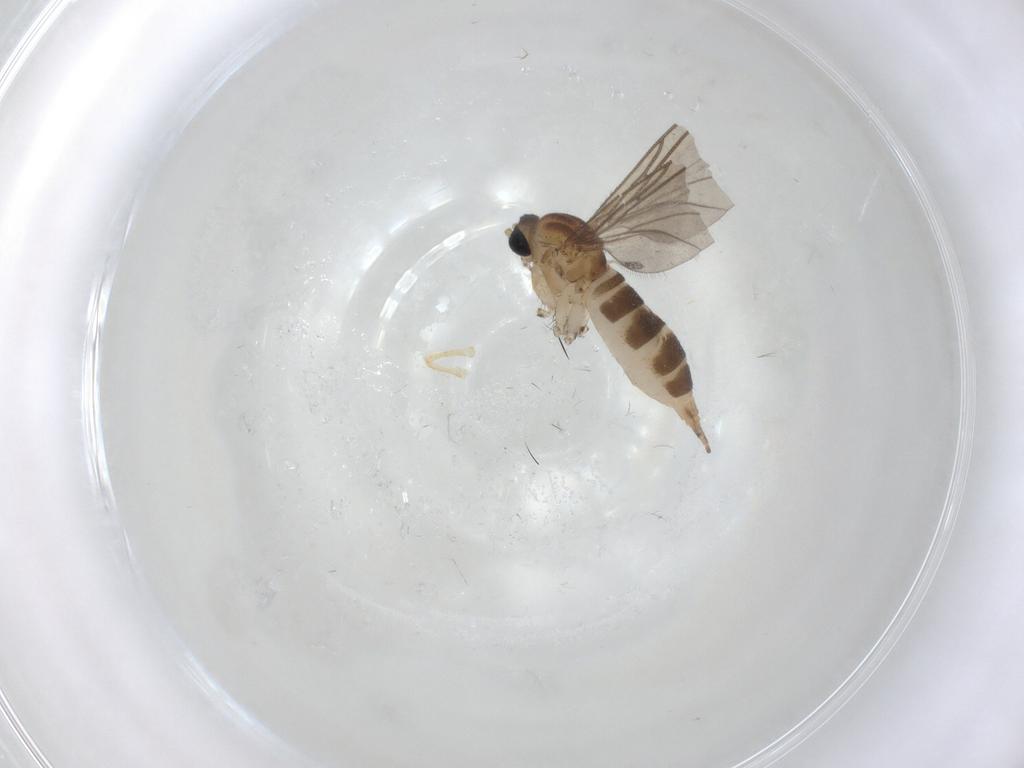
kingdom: Animalia
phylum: Arthropoda
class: Insecta
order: Diptera
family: Sciaridae
